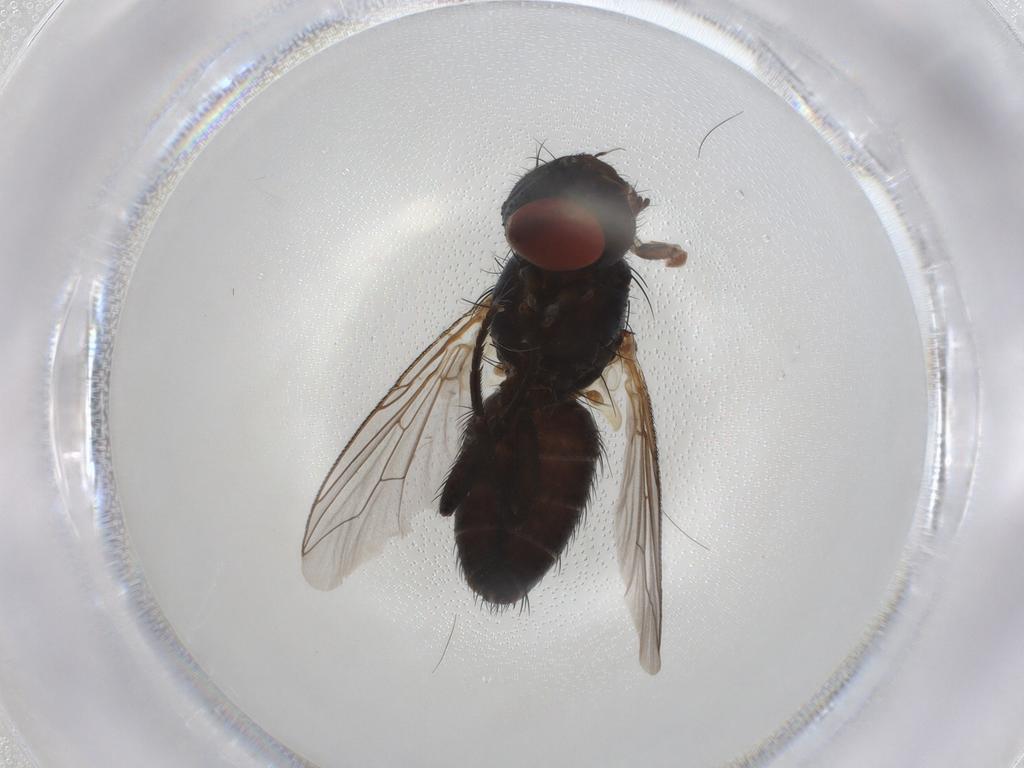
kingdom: Animalia
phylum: Arthropoda
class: Insecta
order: Diptera
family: Sarcophagidae
